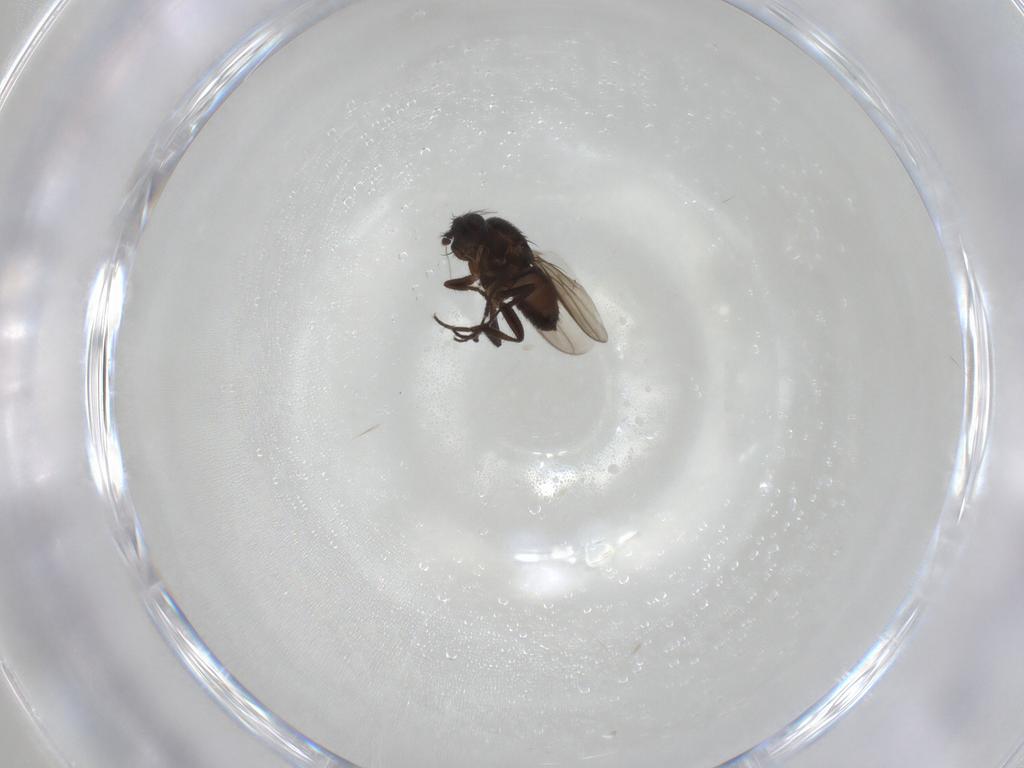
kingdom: Animalia
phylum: Arthropoda
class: Insecta
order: Diptera
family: Sphaeroceridae
